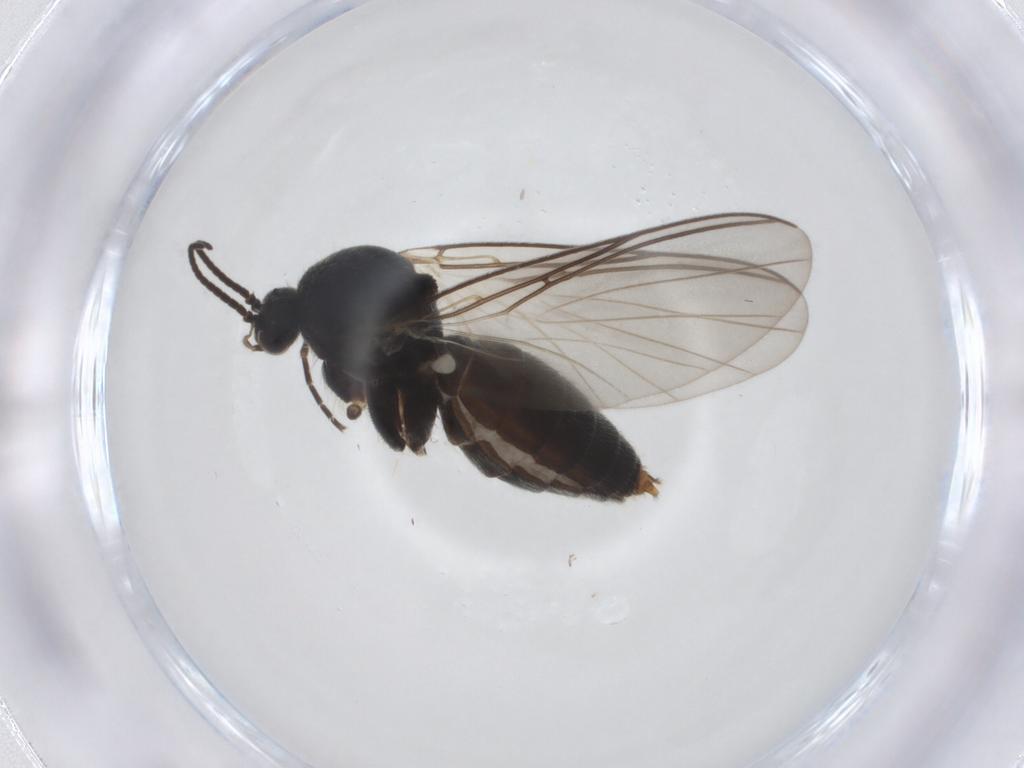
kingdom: Animalia
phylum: Arthropoda
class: Insecta
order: Diptera
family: Mycetophilidae
